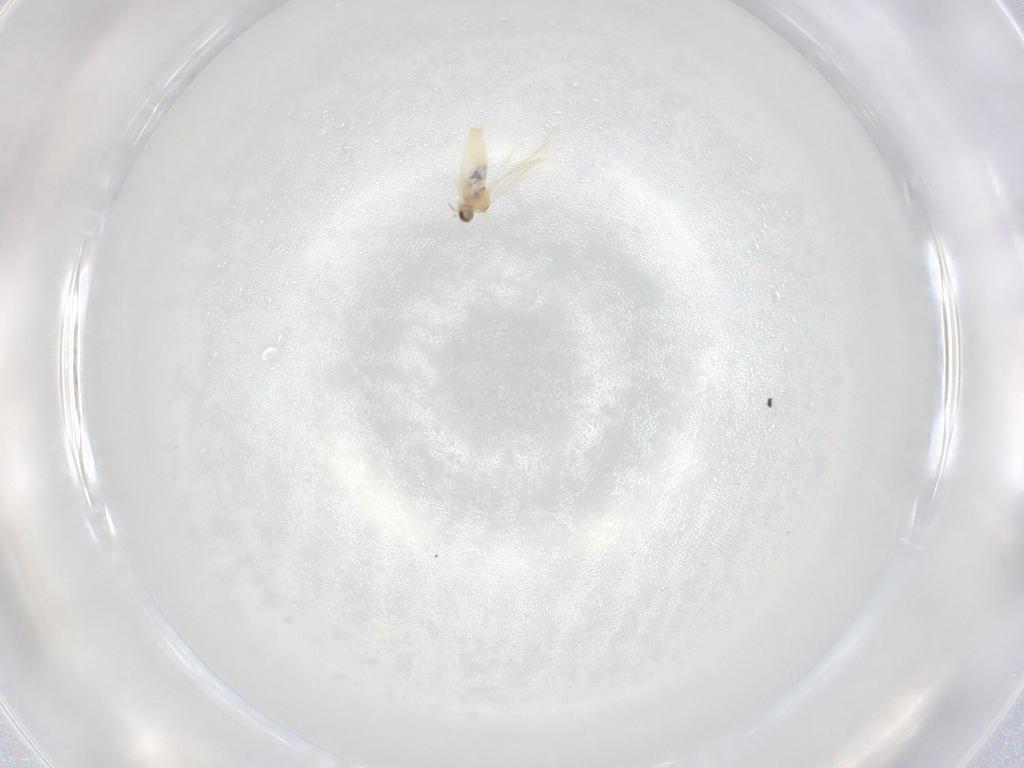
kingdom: Animalia
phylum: Arthropoda
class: Insecta
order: Diptera
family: Cecidomyiidae
